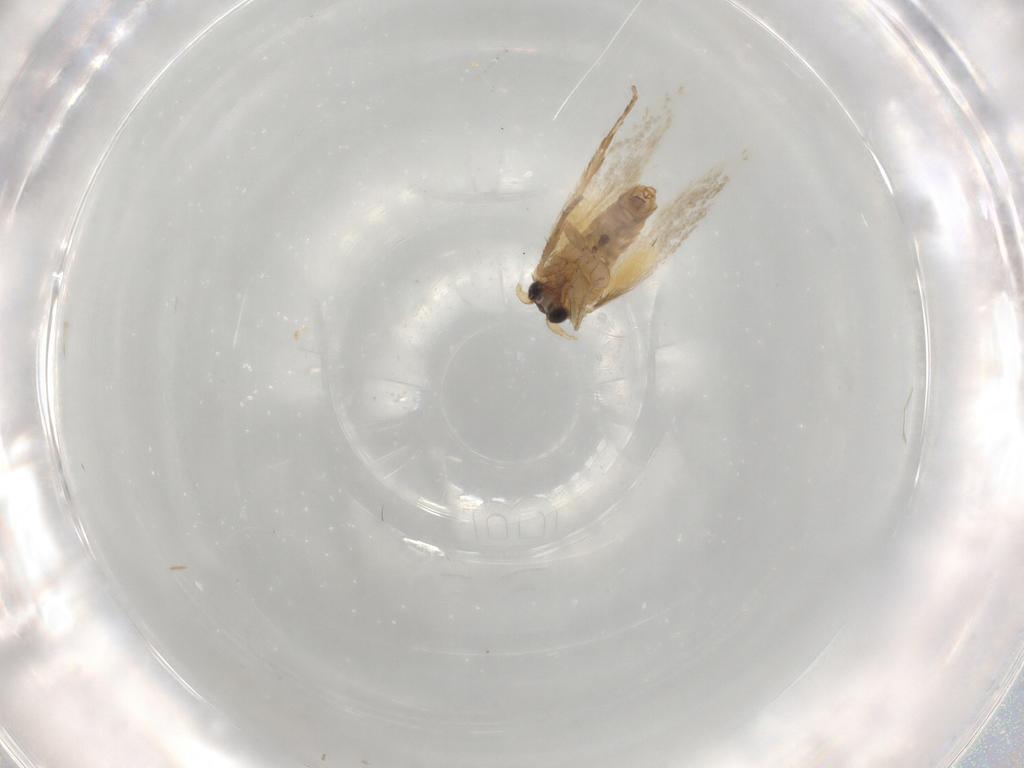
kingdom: Animalia
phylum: Arthropoda
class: Insecta
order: Lepidoptera
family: Nepticulidae
